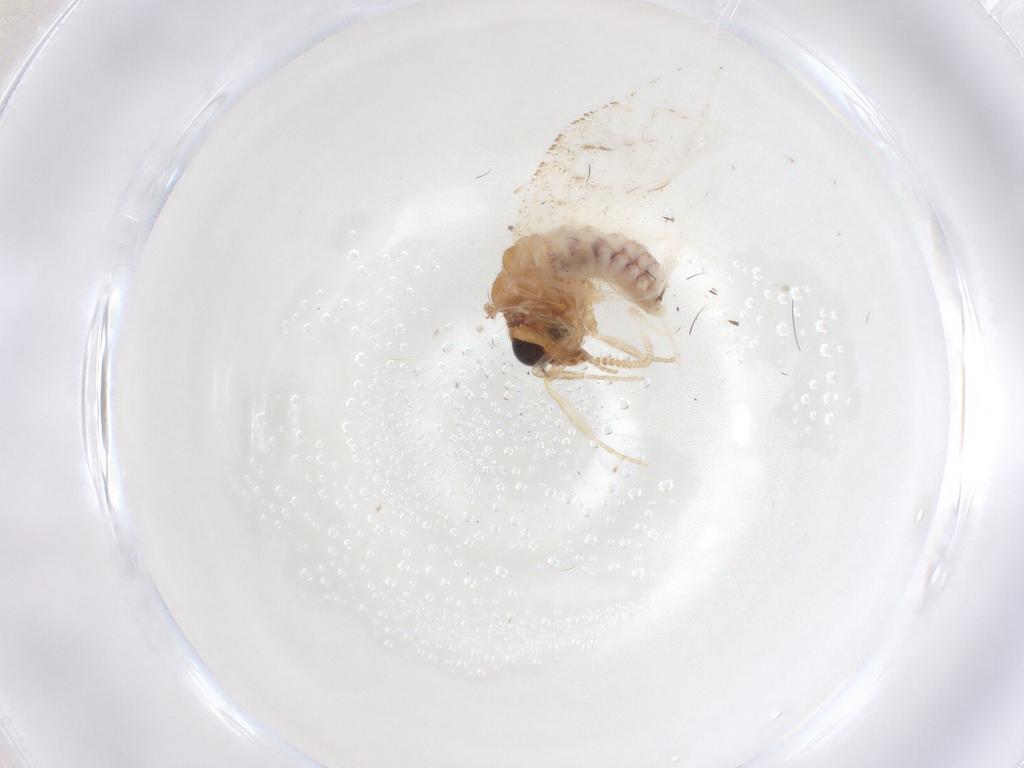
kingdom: Animalia
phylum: Arthropoda
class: Insecta
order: Neuroptera
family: Hemerobiidae
